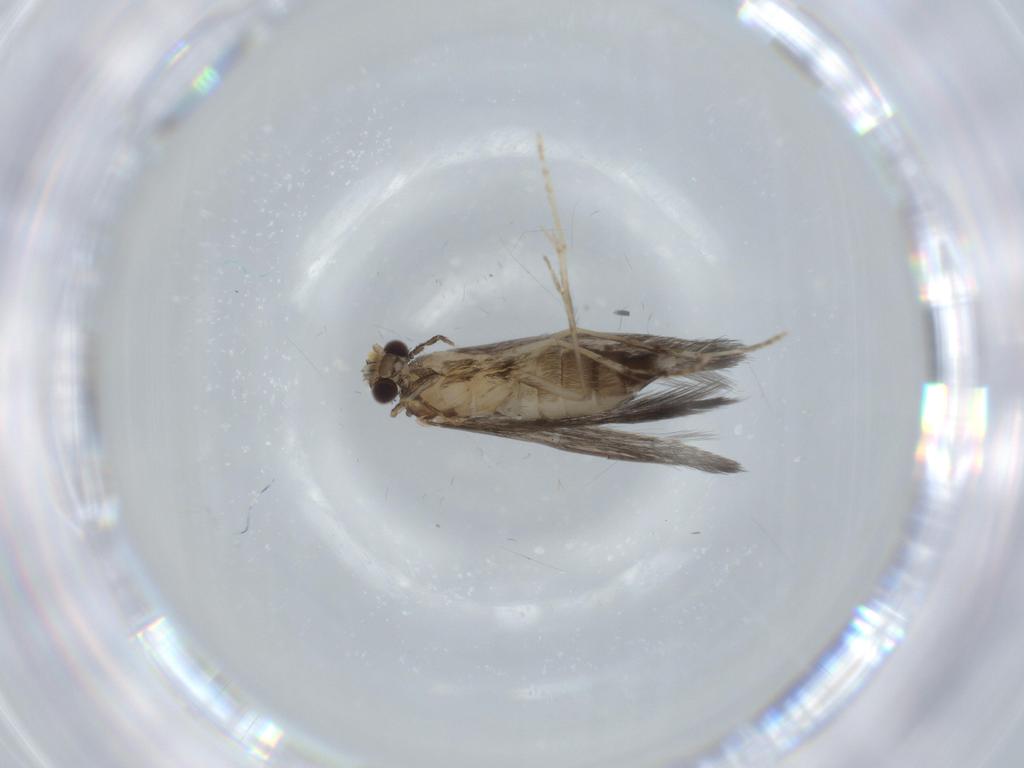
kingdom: Animalia
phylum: Arthropoda
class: Insecta
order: Trichoptera
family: Hydroptilidae
